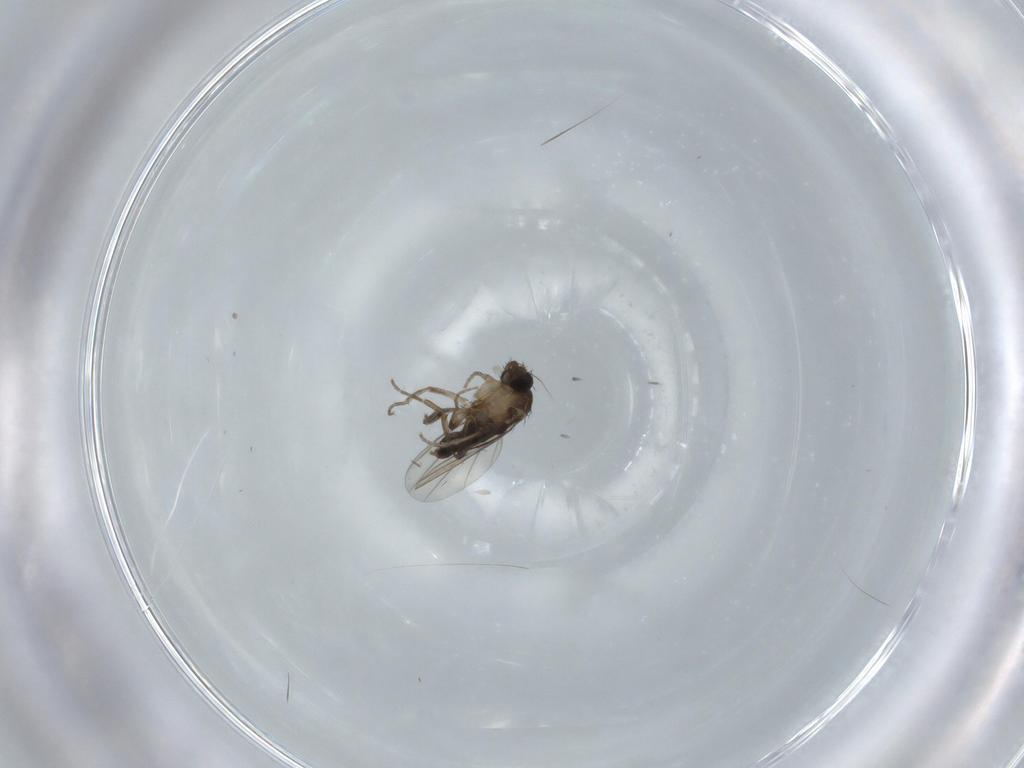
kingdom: Animalia
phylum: Arthropoda
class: Insecta
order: Diptera
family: Phoridae
